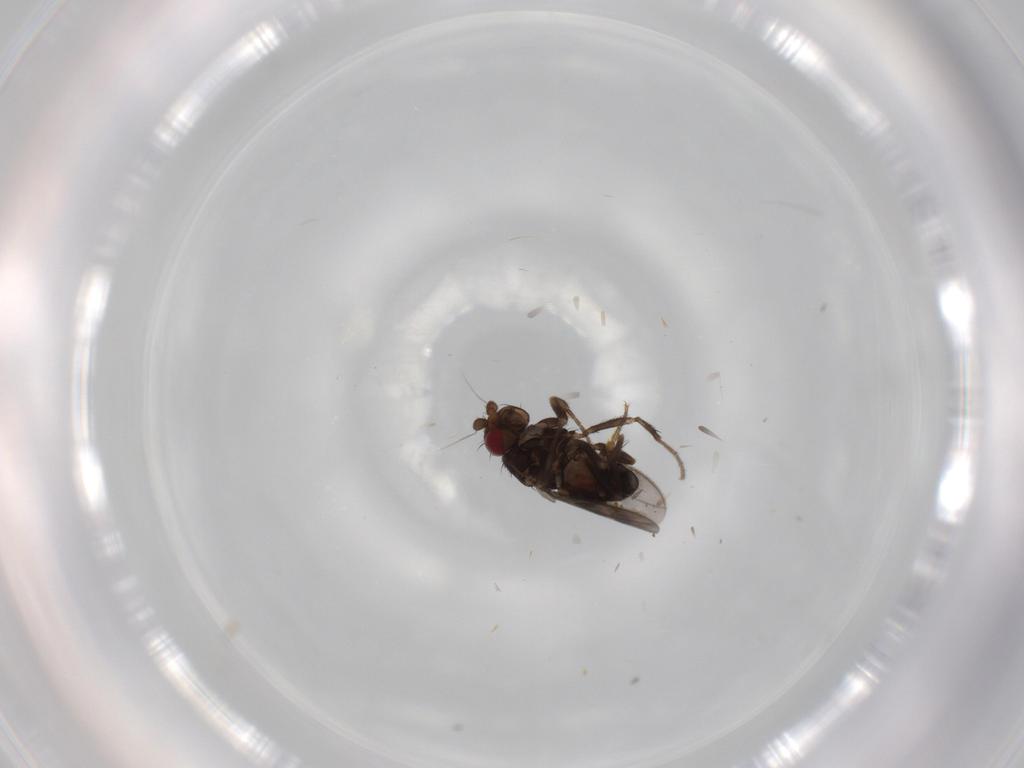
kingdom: Animalia
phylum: Arthropoda
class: Insecta
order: Diptera
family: Sphaeroceridae
